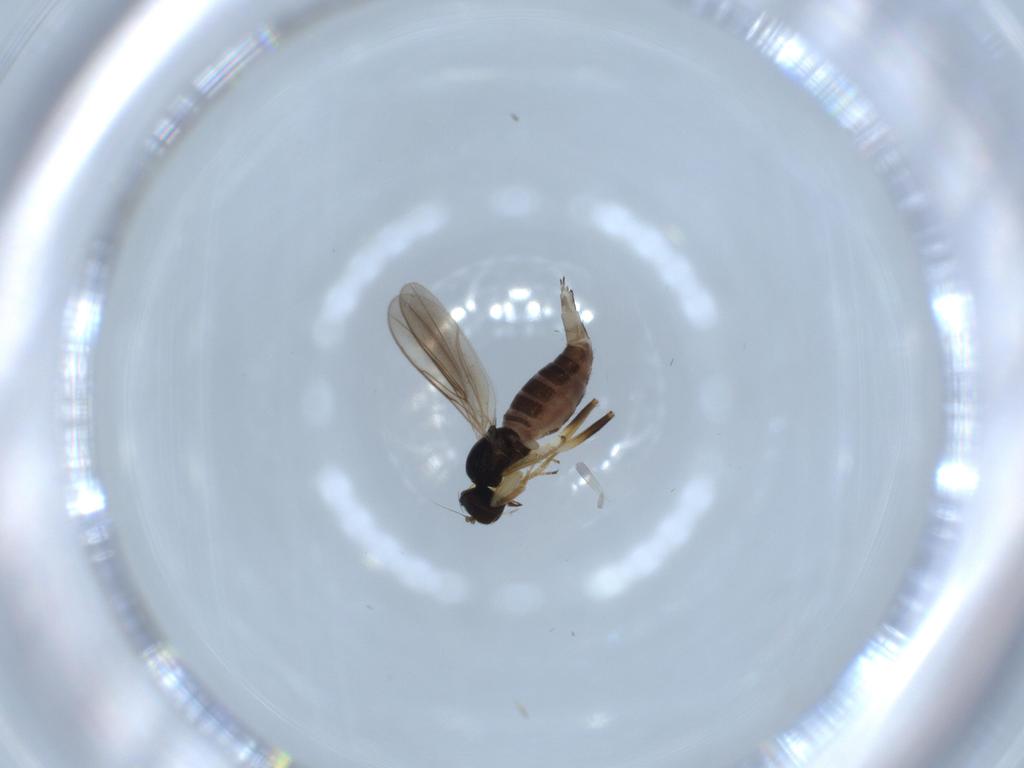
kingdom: Animalia
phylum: Arthropoda
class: Insecta
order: Diptera
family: Hybotidae
